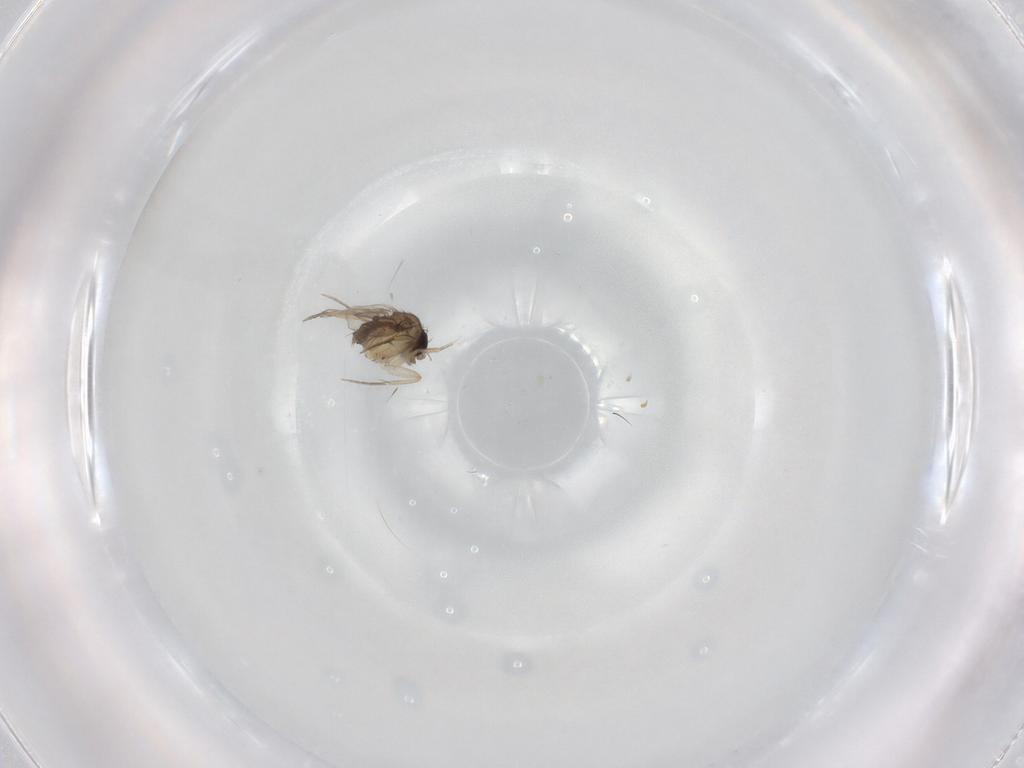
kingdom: Animalia
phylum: Arthropoda
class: Insecta
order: Diptera
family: Phoridae
